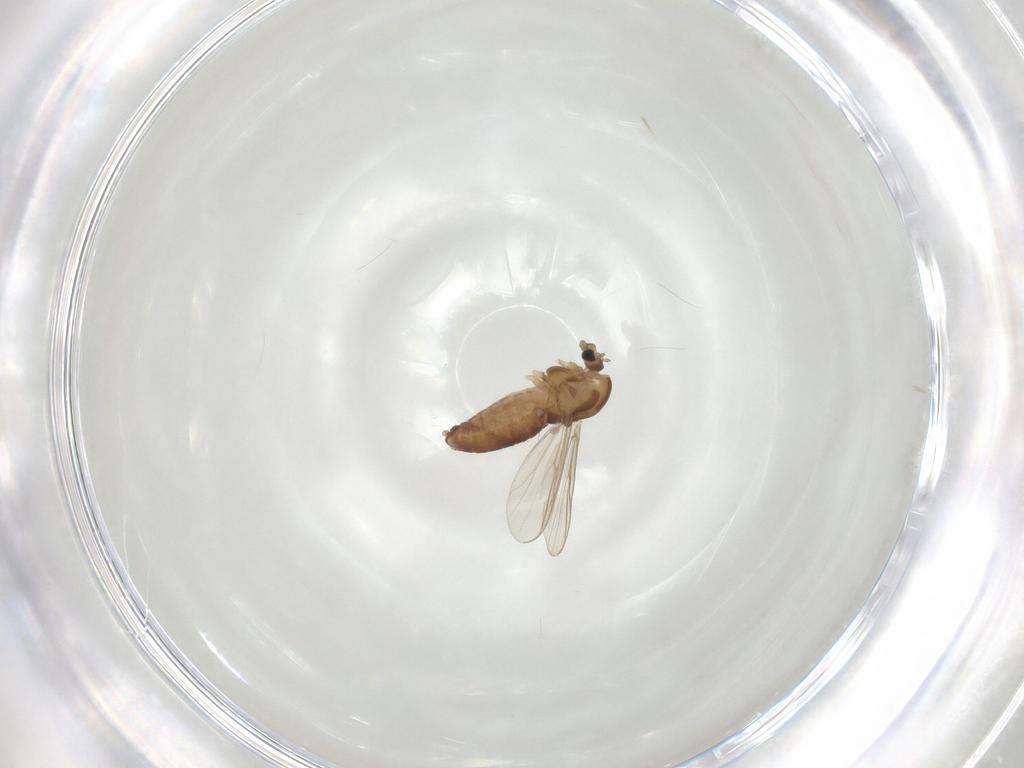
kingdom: Animalia
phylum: Arthropoda
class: Insecta
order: Diptera
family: Chironomidae
